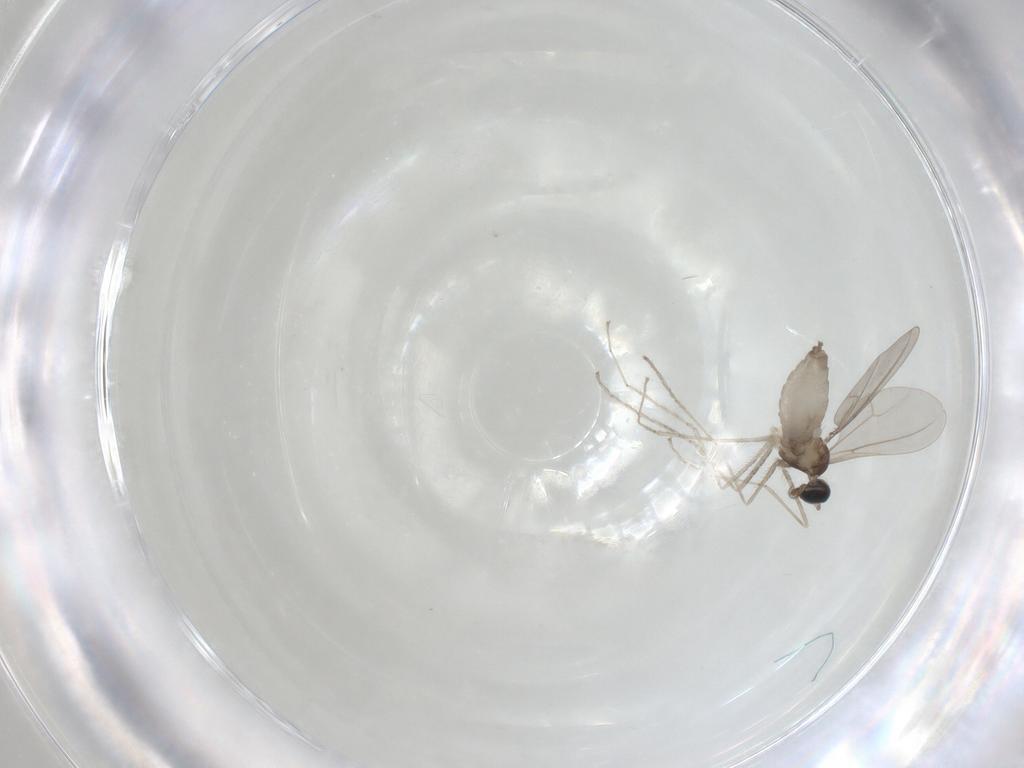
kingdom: Animalia
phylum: Arthropoda
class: Insecta
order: Diptera
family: Cecidomyiidae
